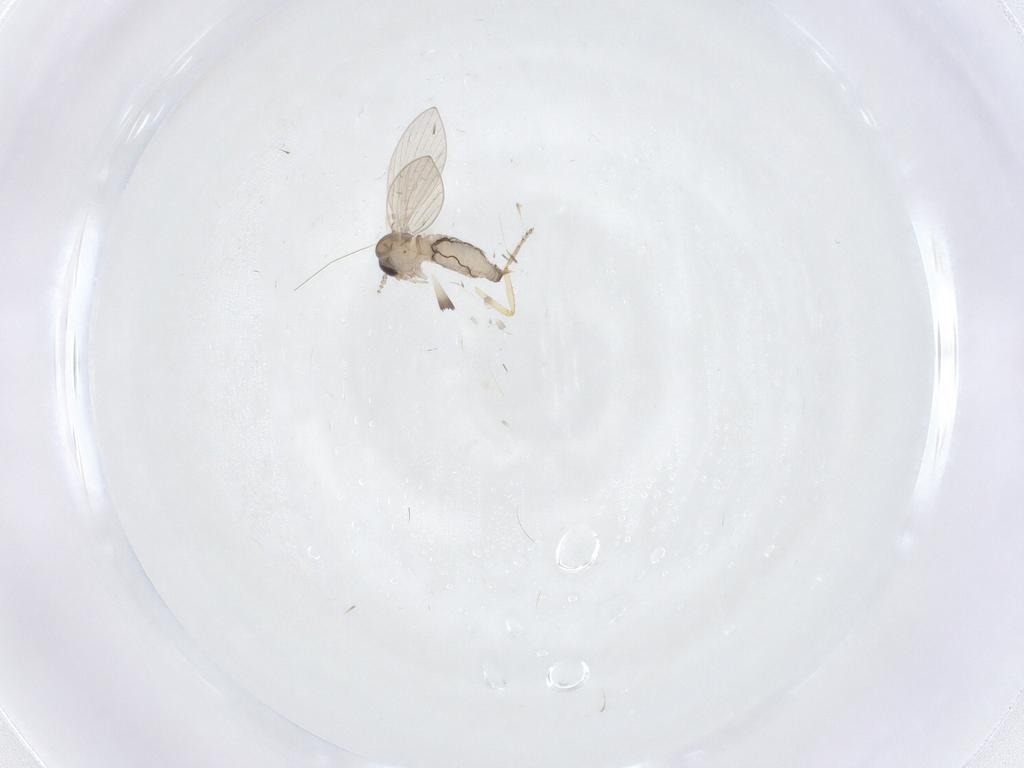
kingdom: Animalia
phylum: Arthropoda
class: Insecta
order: Diptera
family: Psychodidae
